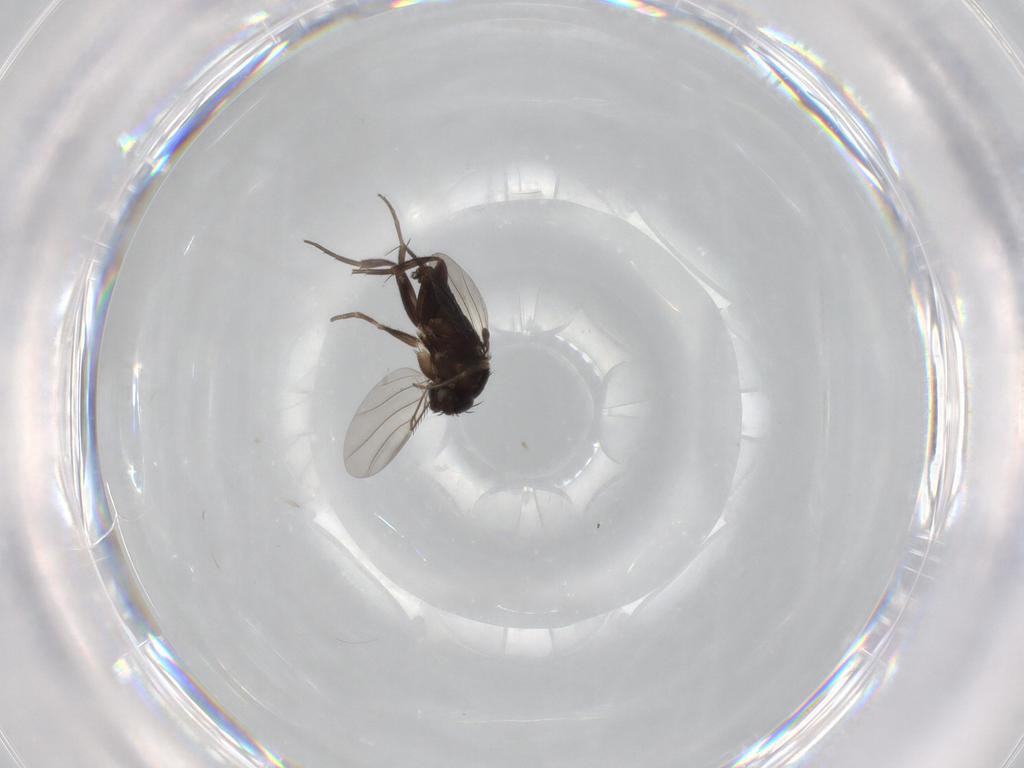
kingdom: Animalia
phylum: Arthropoda
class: Insecta
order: Diptera
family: Phoridae
